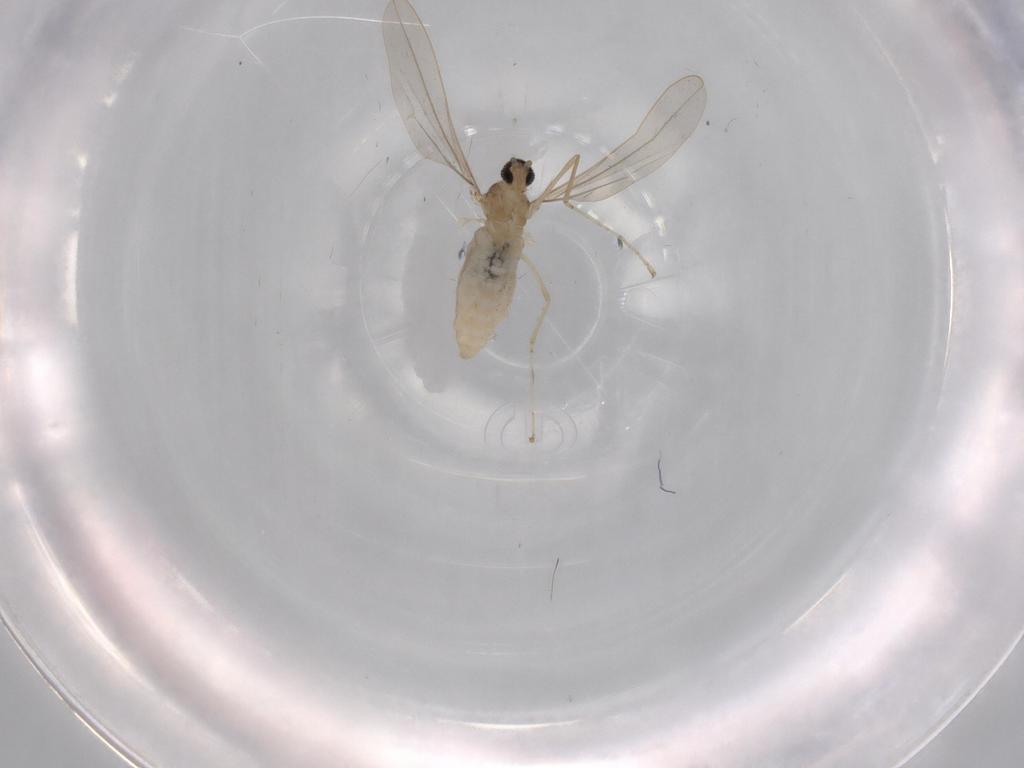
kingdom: Animalia
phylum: Arthropoda
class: Insecta
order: Diptera
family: Cecidomyiidae
